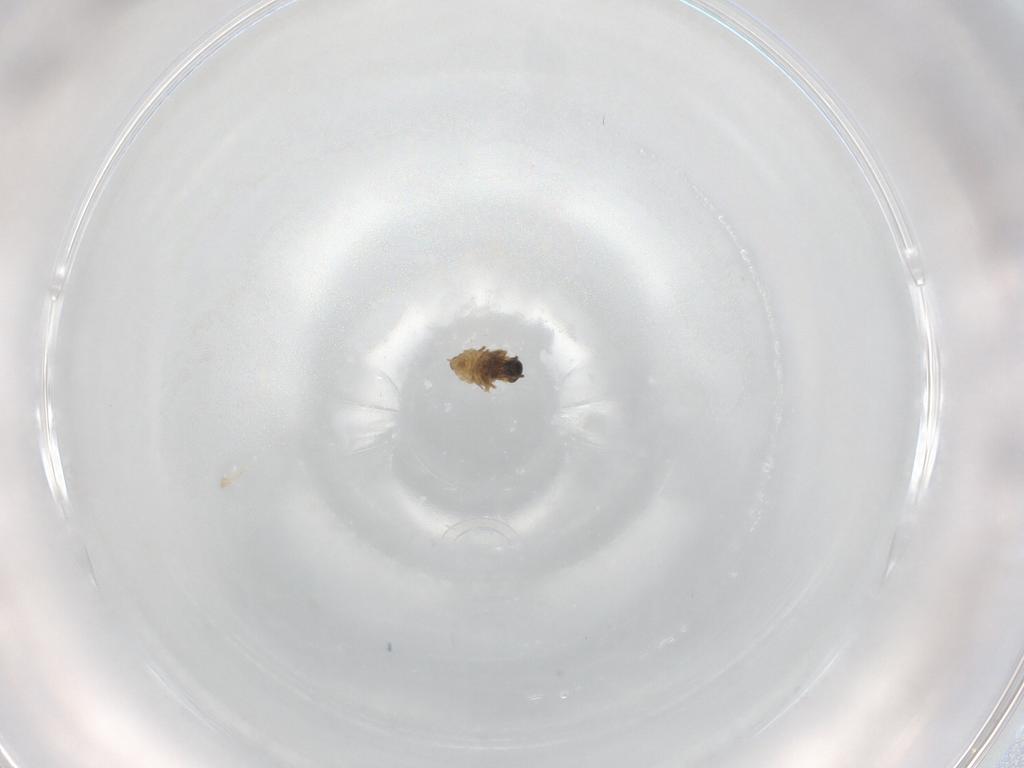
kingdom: Animalia
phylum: Arthropoda
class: Insecta
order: Diptera
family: Cecidomyiidae
